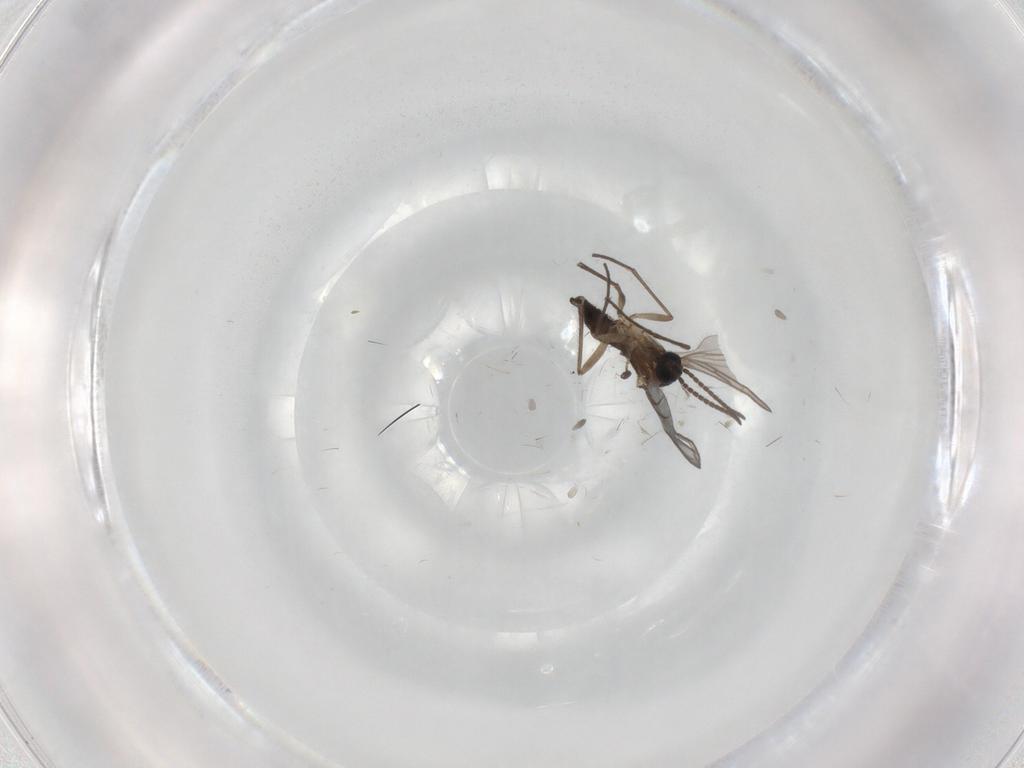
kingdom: Animalia
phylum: Arthropoda
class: Insecta
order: Diptera
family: Sciaridae
